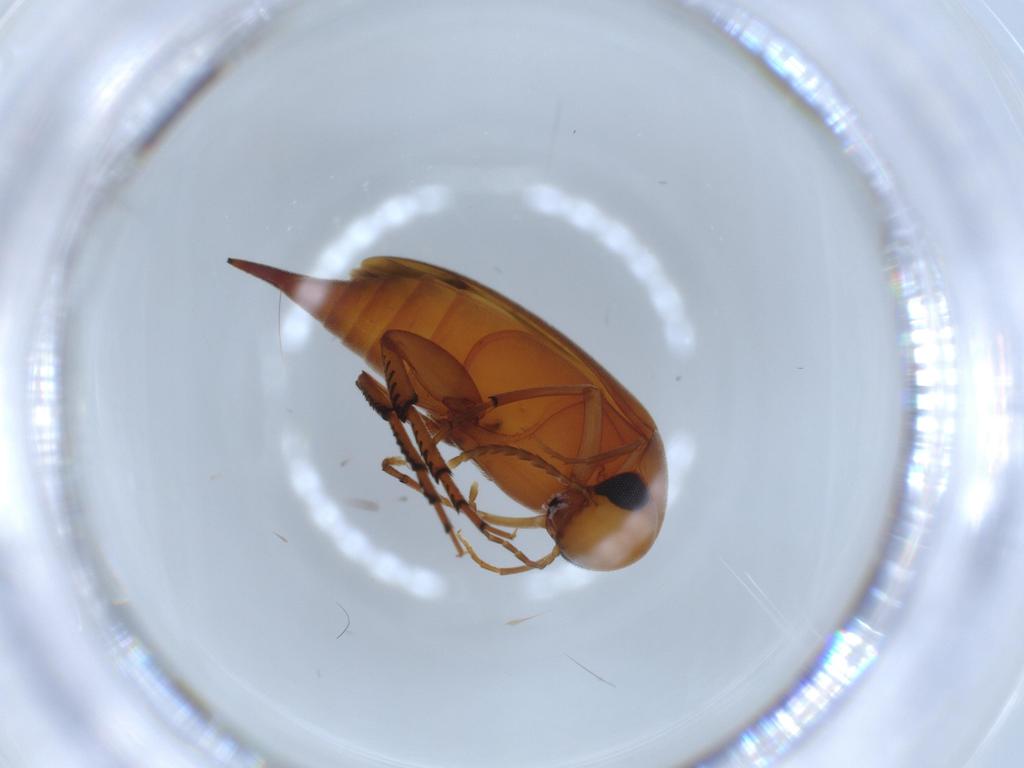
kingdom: Animalia
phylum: Arthropoda
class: Insecta
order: Coleoptera
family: Mordellidae
